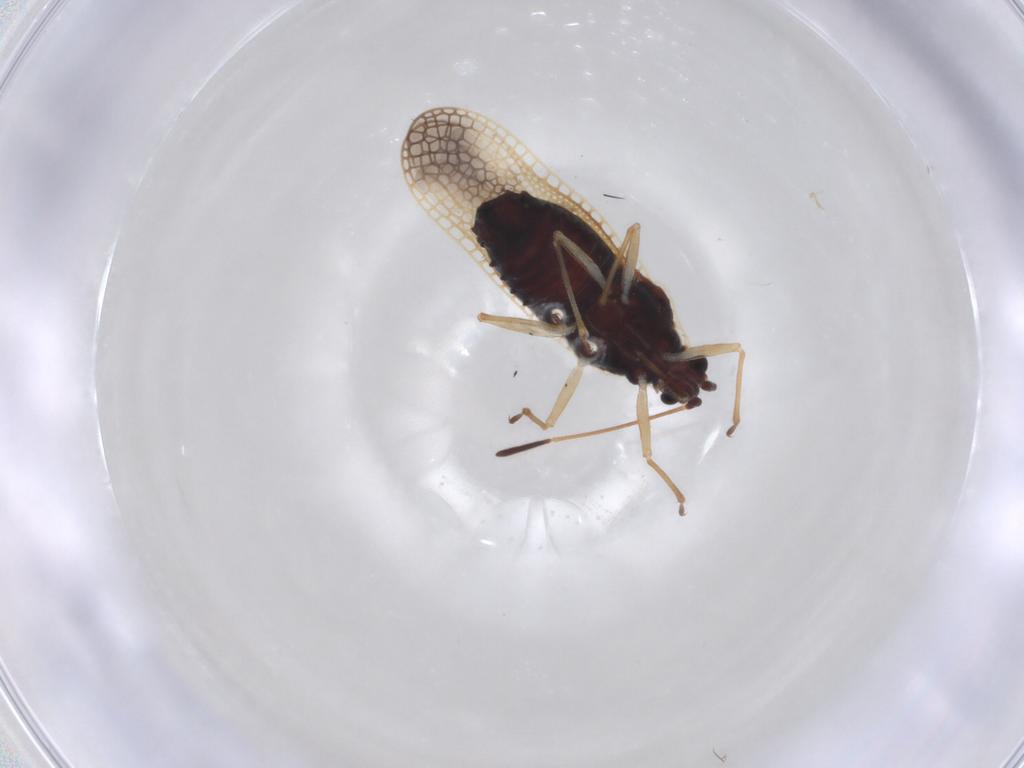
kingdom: Animalia
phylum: Arthropoda
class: Insecta
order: Hemiptera
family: Tingidae
